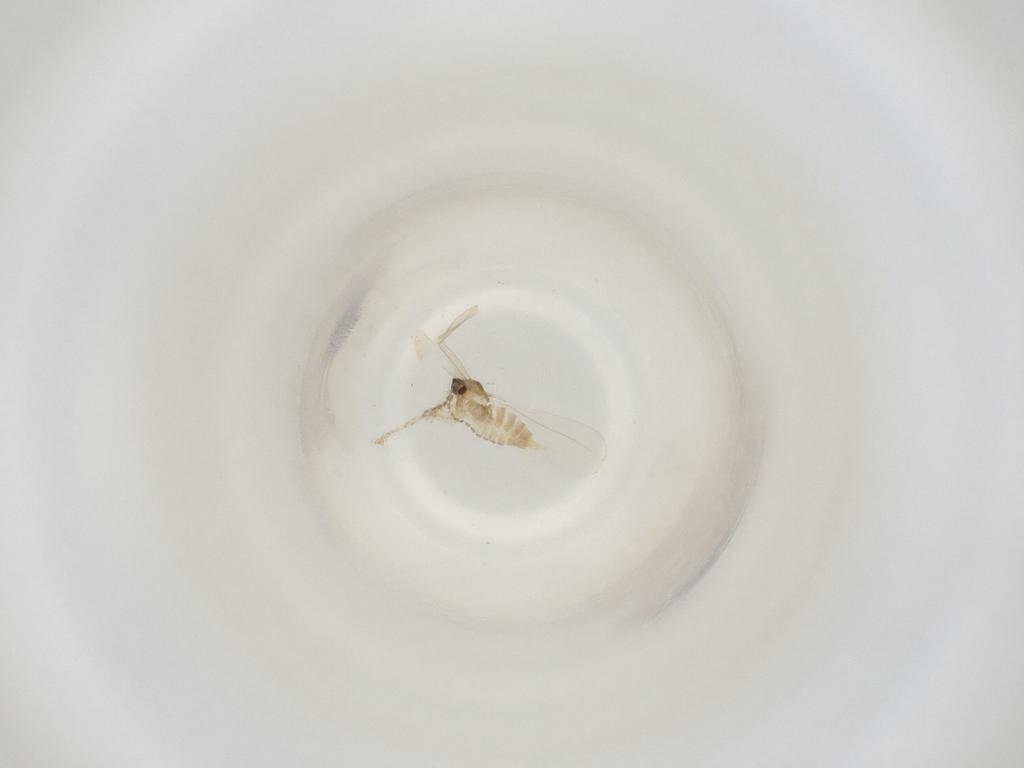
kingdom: Animalia
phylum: Arthropoda
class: Insecta
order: Diptera
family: Cecidomyiidae
